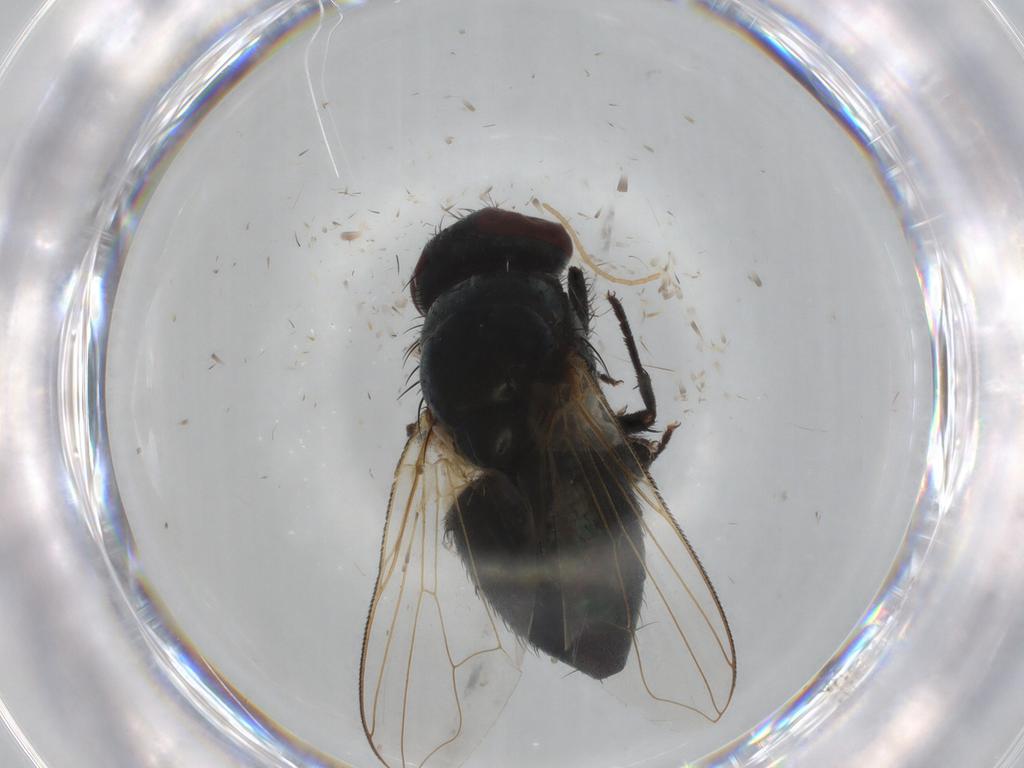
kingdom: Animalia
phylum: Arthropoda
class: Insecta
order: Diptera
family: Muscidae
